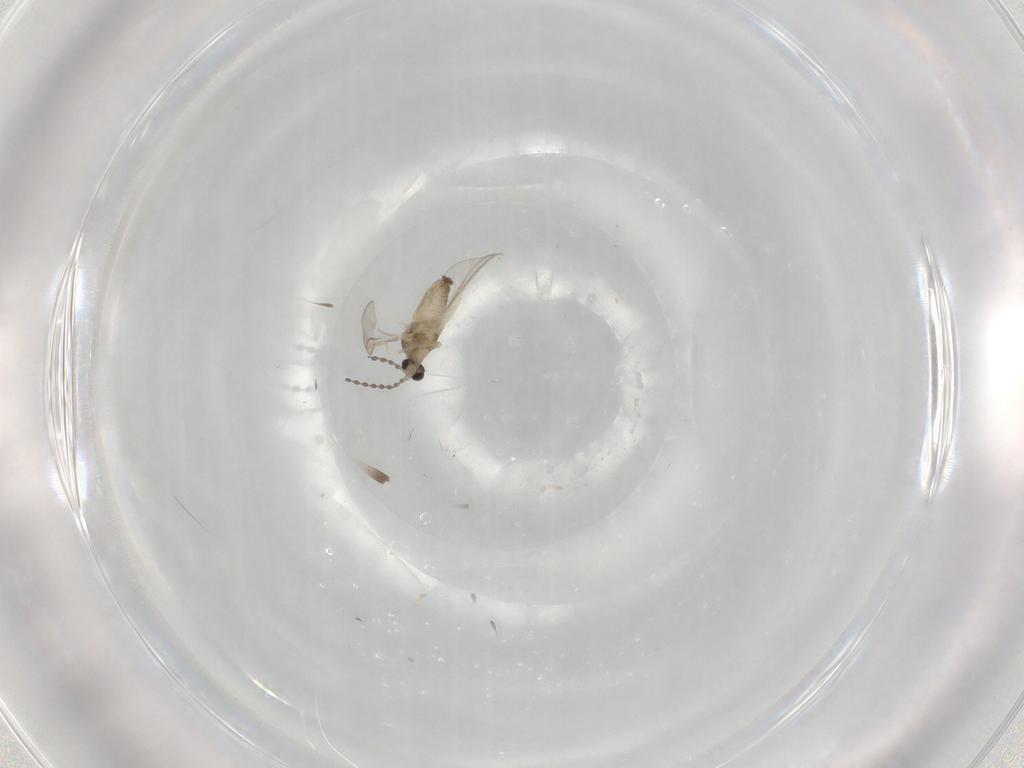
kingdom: Animalia
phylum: Arthropoda
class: Insecta
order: Diptera
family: Cecidomyiidae
